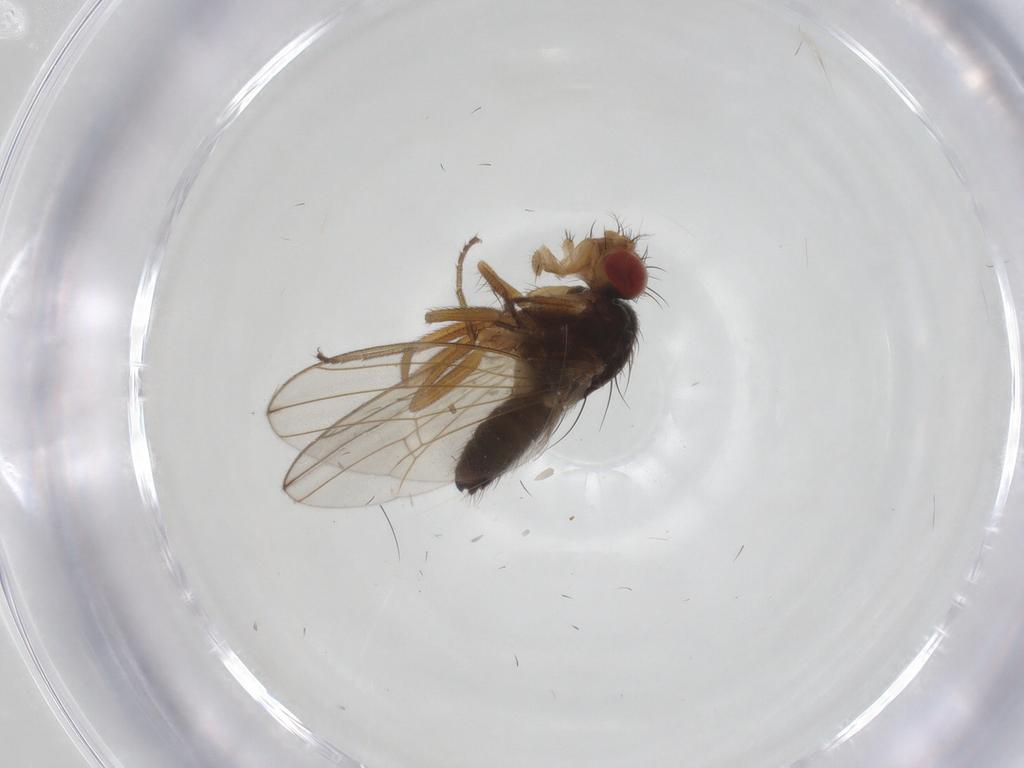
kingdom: Animalia
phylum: Arthropoda
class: Insecta
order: Diptera
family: Drosophilidae
